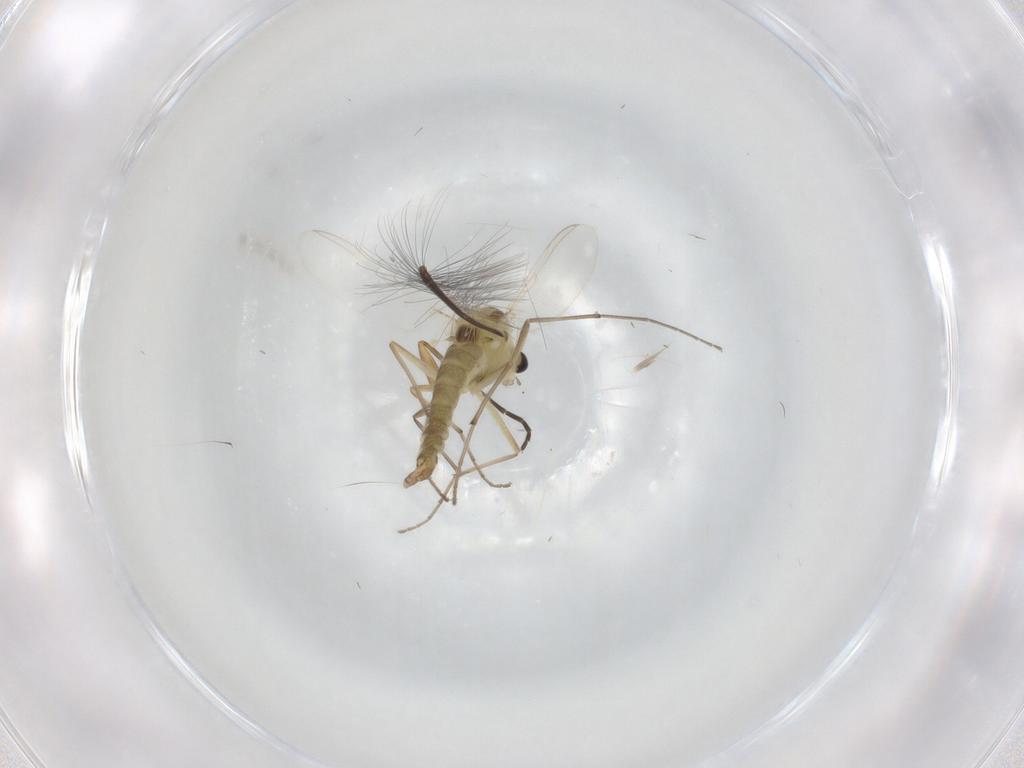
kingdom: Animalia
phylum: Arthropoda
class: Insecta
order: Diptera
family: Chironomidae
